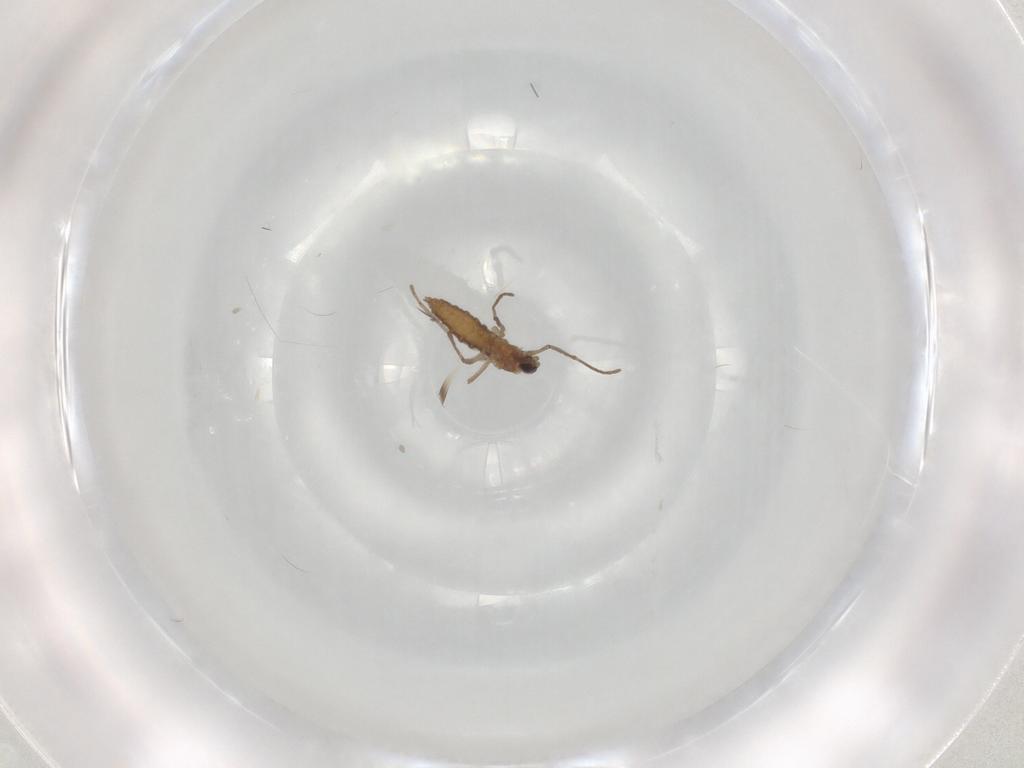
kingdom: Animalia
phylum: Arthropoda
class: Insecta
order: Diptera
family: Cecidomyiidae
